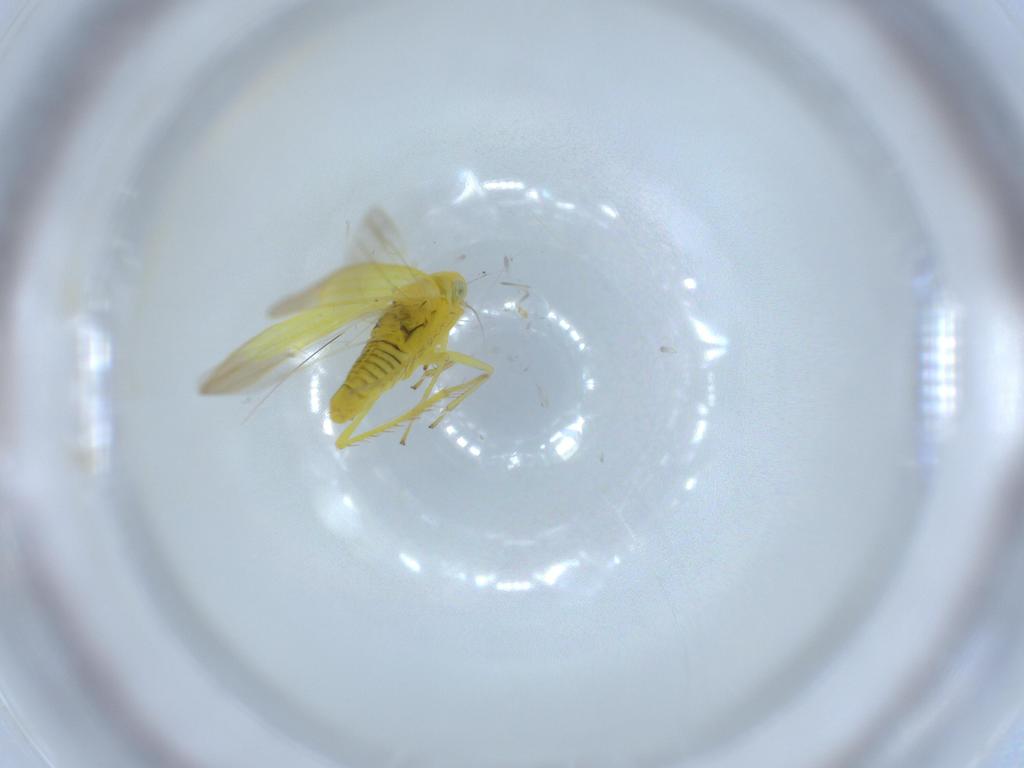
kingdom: Animalia
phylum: Arthropoda
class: Insecta
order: Hemiptera
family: Cicadellidae
